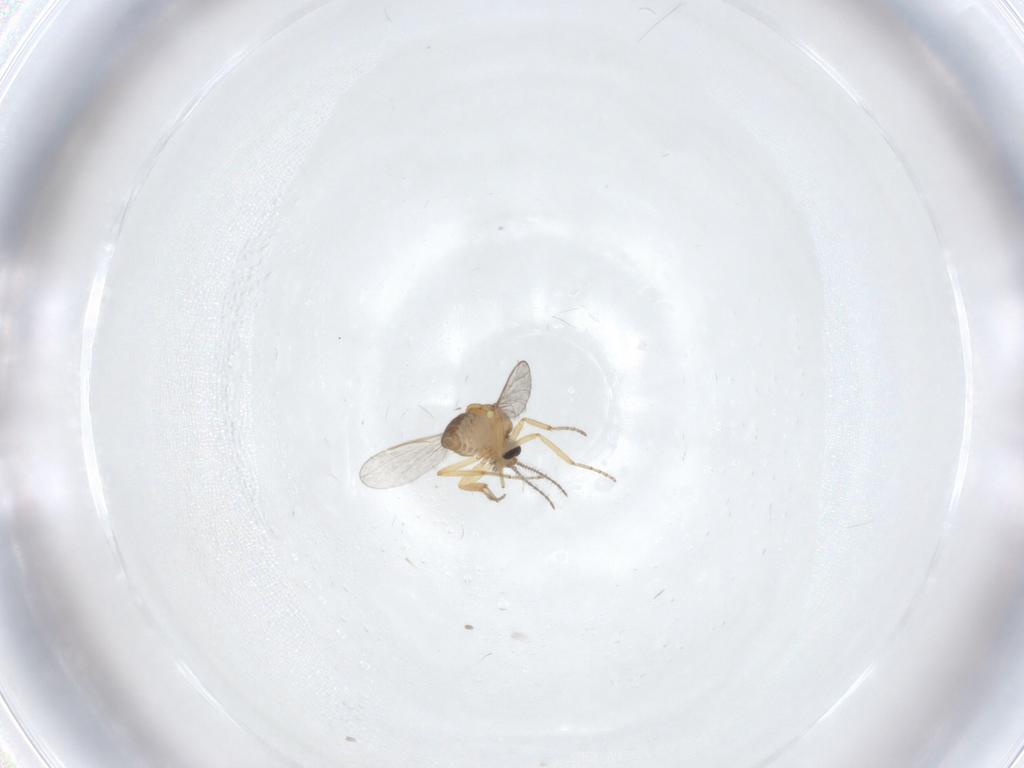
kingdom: Animalia
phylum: Arthropoda
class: Insecta
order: Diptera
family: Ceratopogonidae
